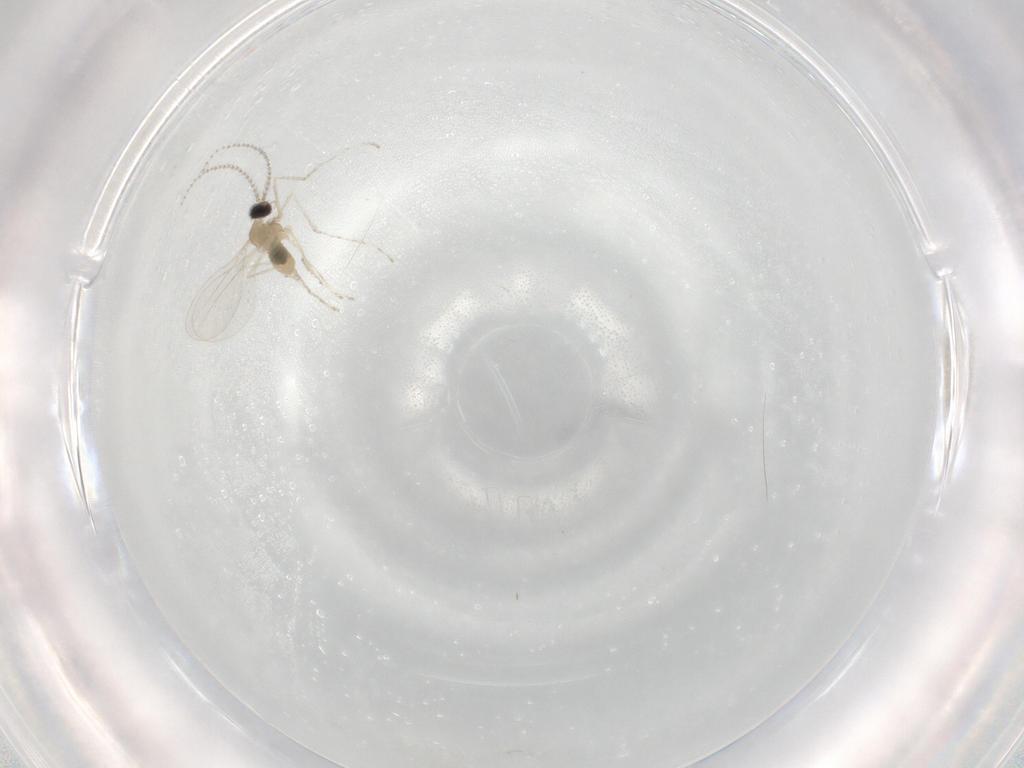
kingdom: Animalia
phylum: Arthropoda
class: Insecta
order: Diptera
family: Cecidomyiidae
